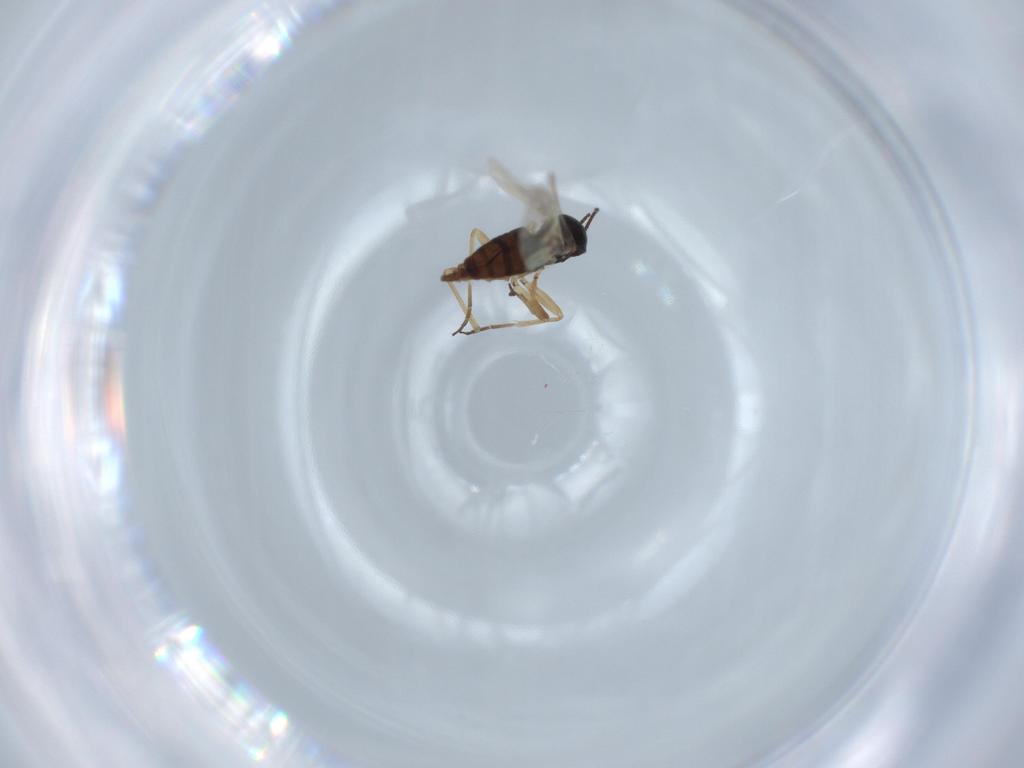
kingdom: Animalia
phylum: Arthropoda
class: Insecta
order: Diptera
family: Sciaridae
